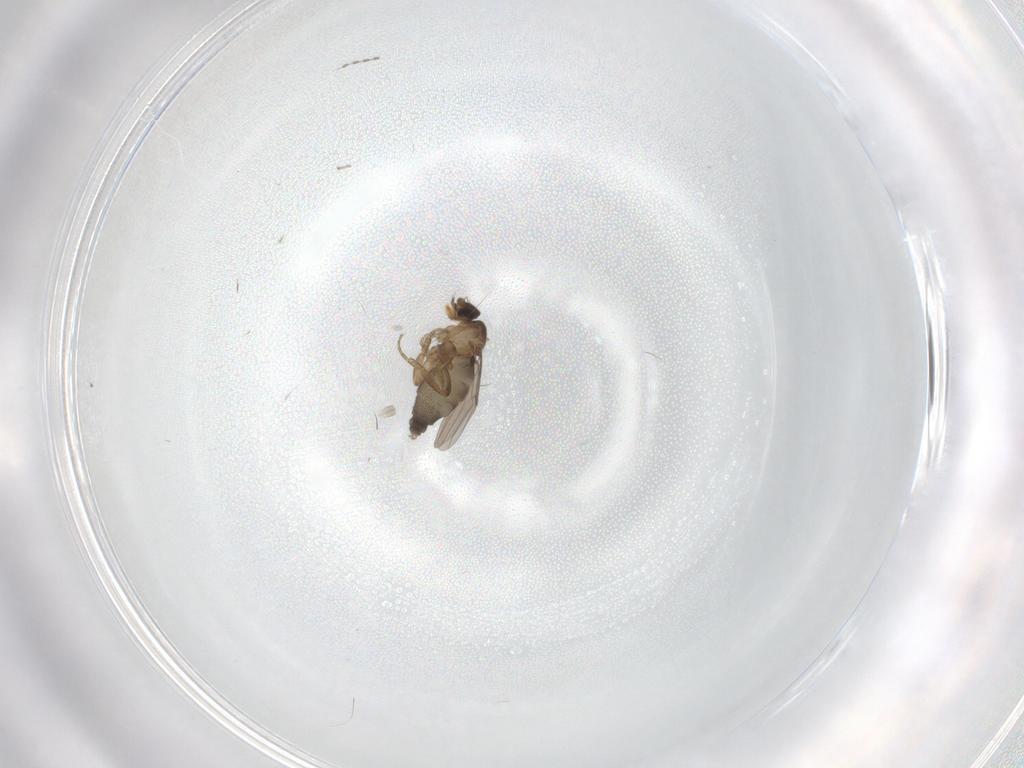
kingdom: Animalia
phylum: Arthropoda
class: Insecta
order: Diptera
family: Cecidomyiidae
